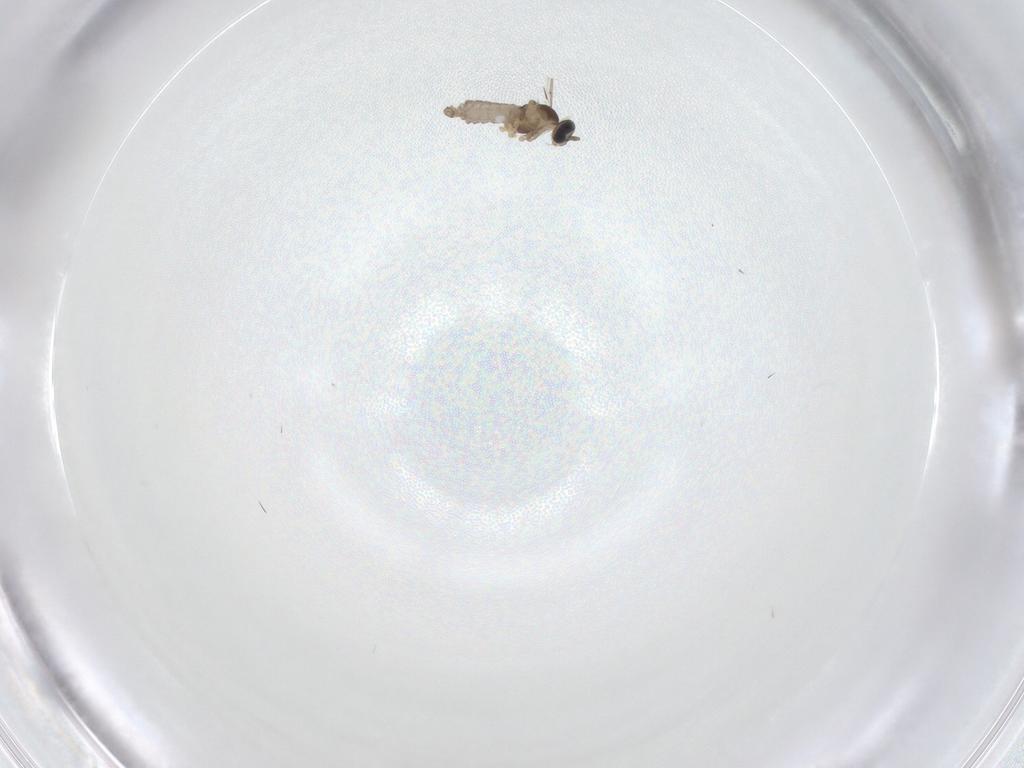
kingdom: Animalia
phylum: Arthropoda
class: Insecta
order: Diptera
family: Cecidomyiidae
